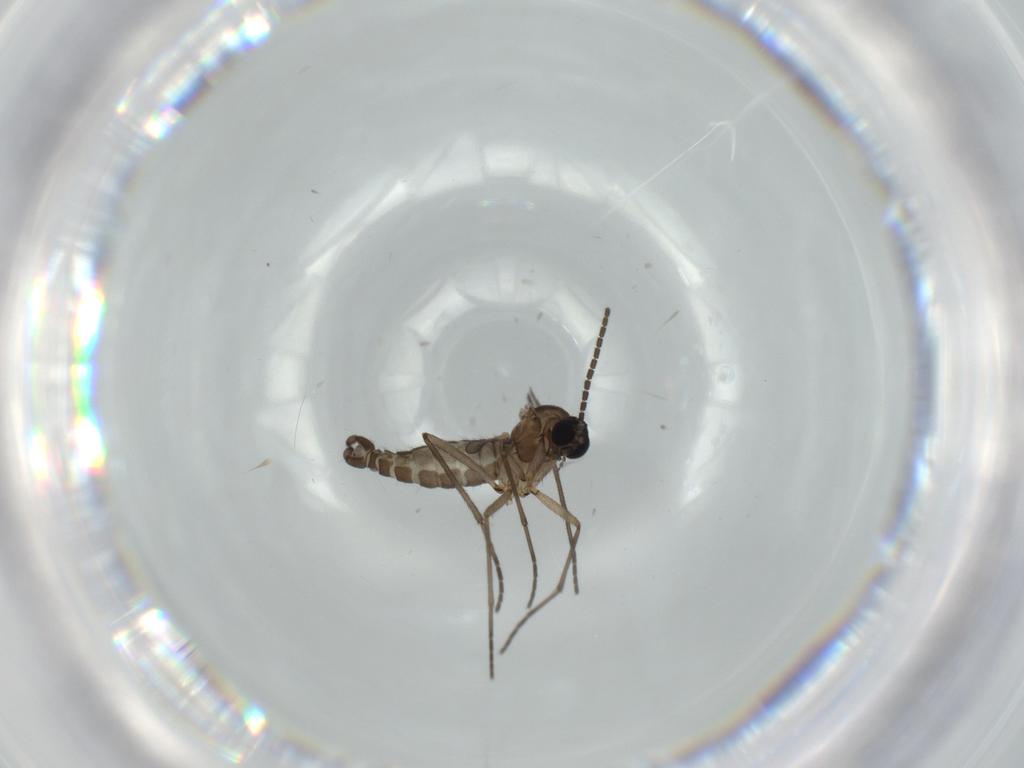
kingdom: Animalia
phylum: Arthropoda
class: Insecta
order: Diptera
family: Sciaridae
